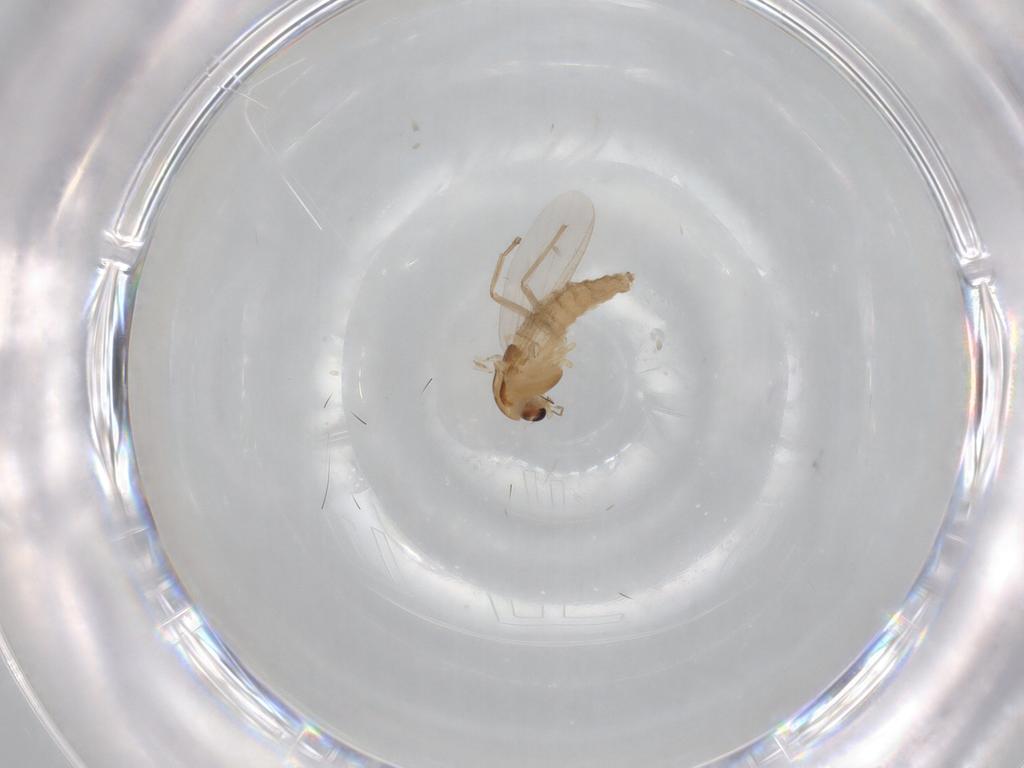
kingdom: Animalia
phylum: Arthropoda
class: Insecta
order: Diptera
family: Chironomidae
